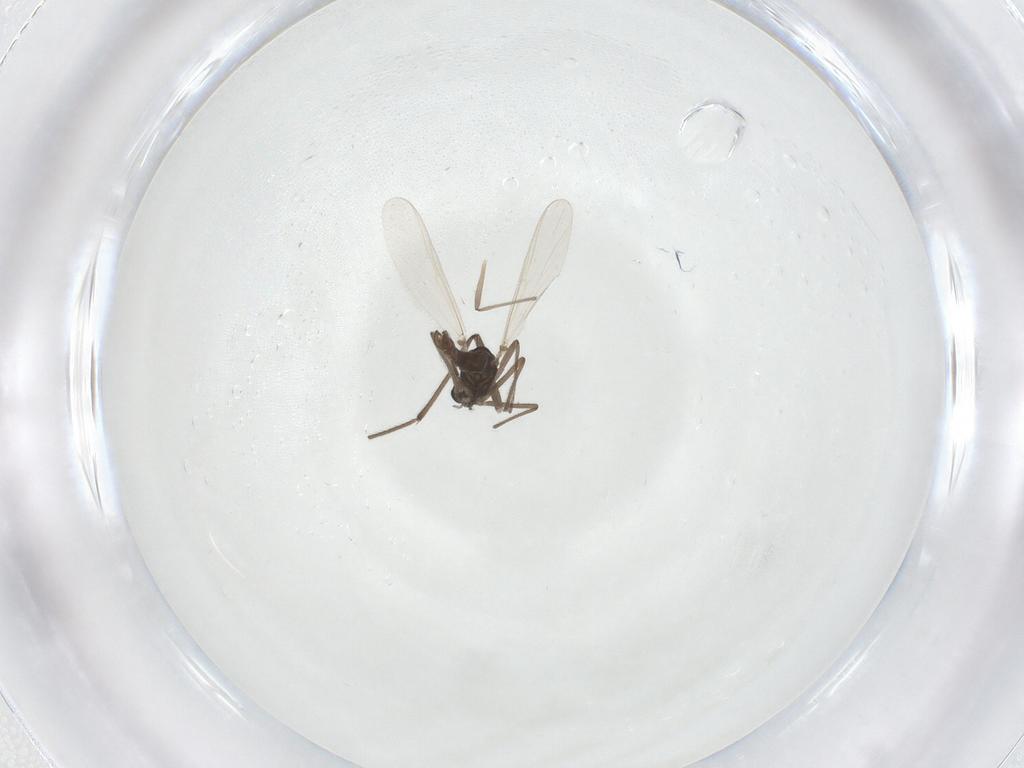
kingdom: Animalia
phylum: Arthropoda
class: Insecta
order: Diptera
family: Chironomidae
